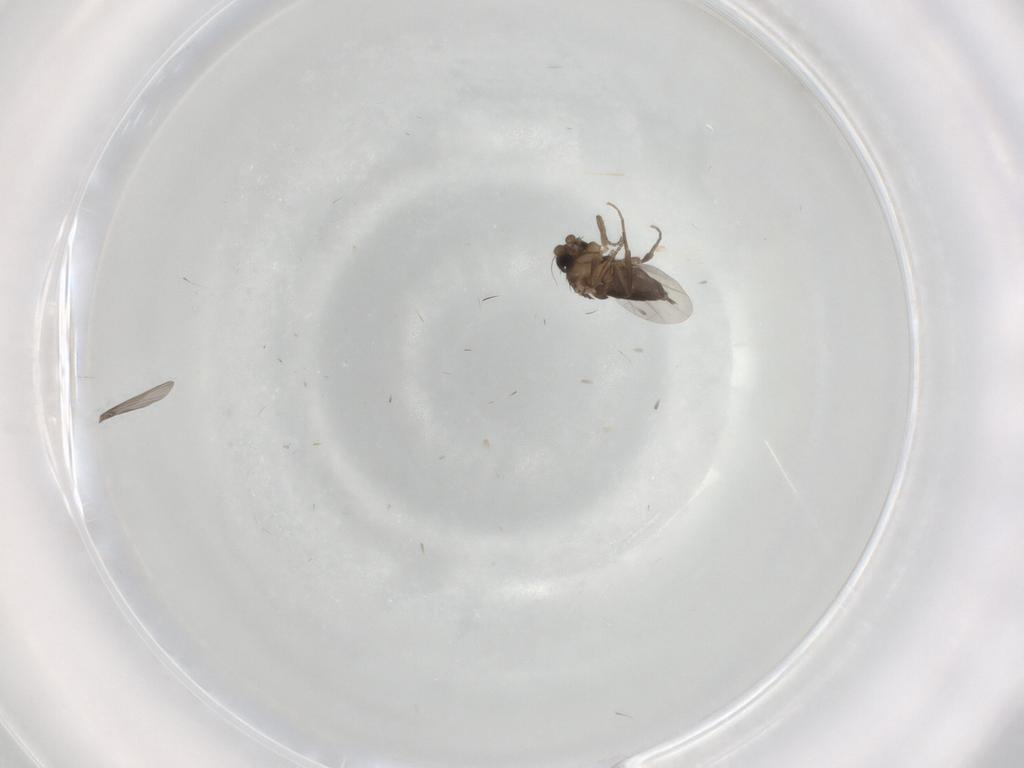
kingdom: Animalia
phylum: Arthropoda
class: Insecta
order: Diptera
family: Phoridae
